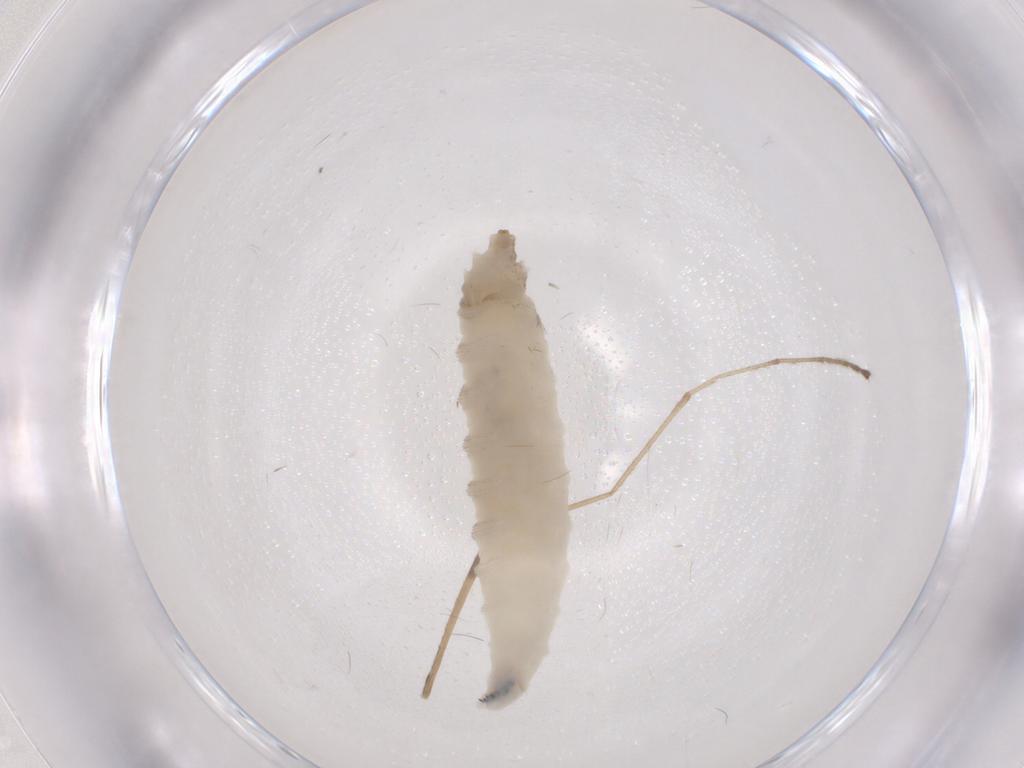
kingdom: Animalia
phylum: Arthropoda
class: Insecta
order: Diptera
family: Drosophilidae
